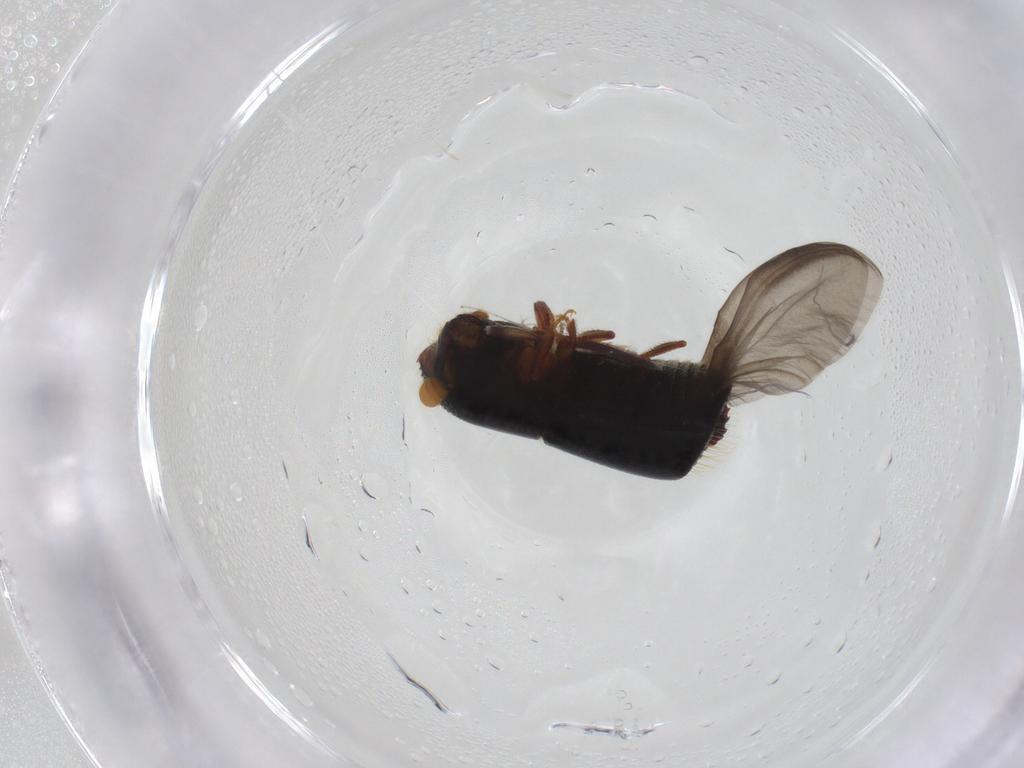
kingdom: Animalia
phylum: Arthropoda
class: Insecta
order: Coleoptera
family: Curculionidae
